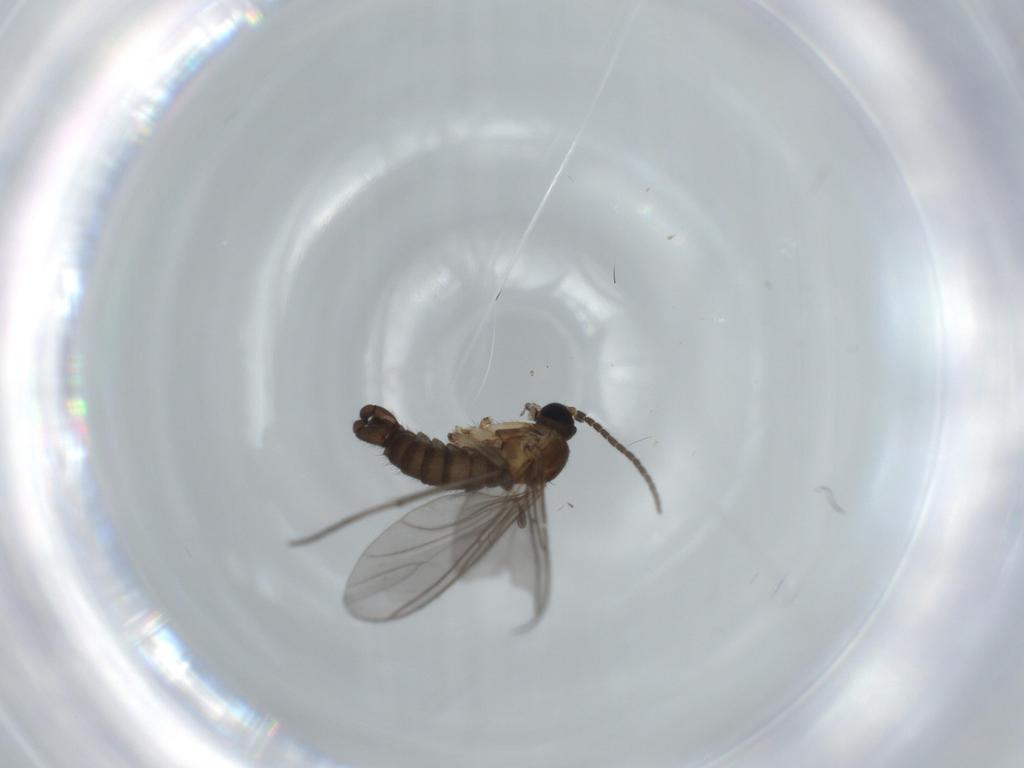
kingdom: Animalia
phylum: Arthropoda
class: Insecta
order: Diptera
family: Sciaridae
